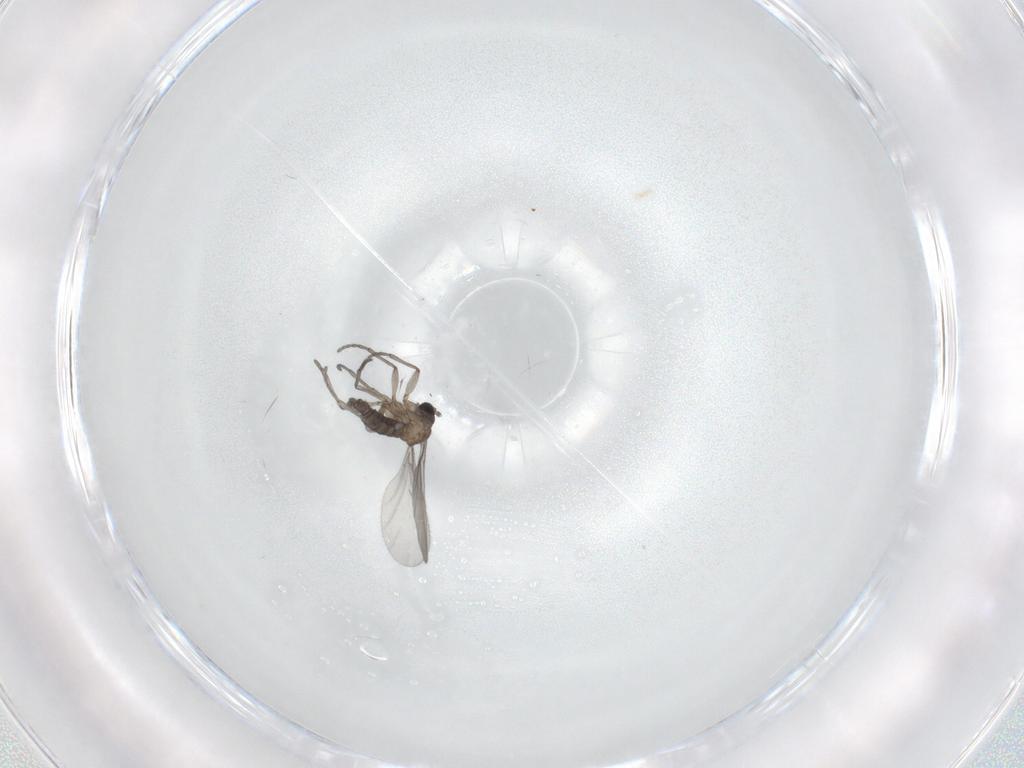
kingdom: Animalia
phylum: Arthropoda
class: Insecta
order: Diptera
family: Sciaridae
